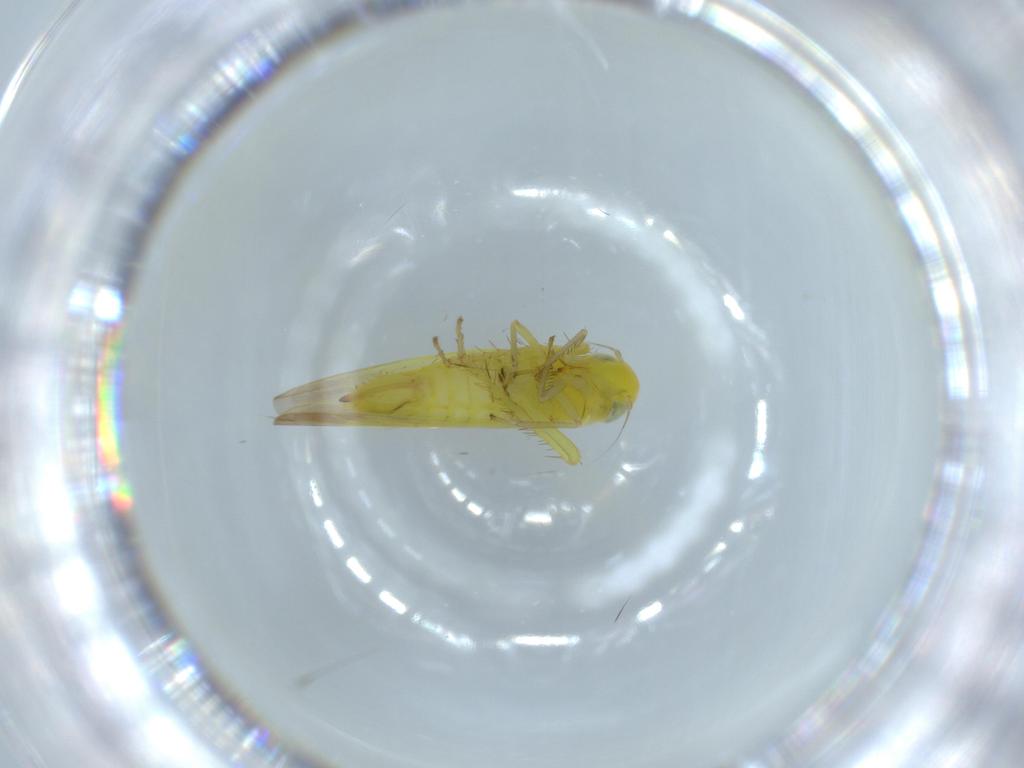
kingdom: Animalia
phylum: Arthropoda
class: Insecta
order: Hemiptera
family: Cicadellidae
